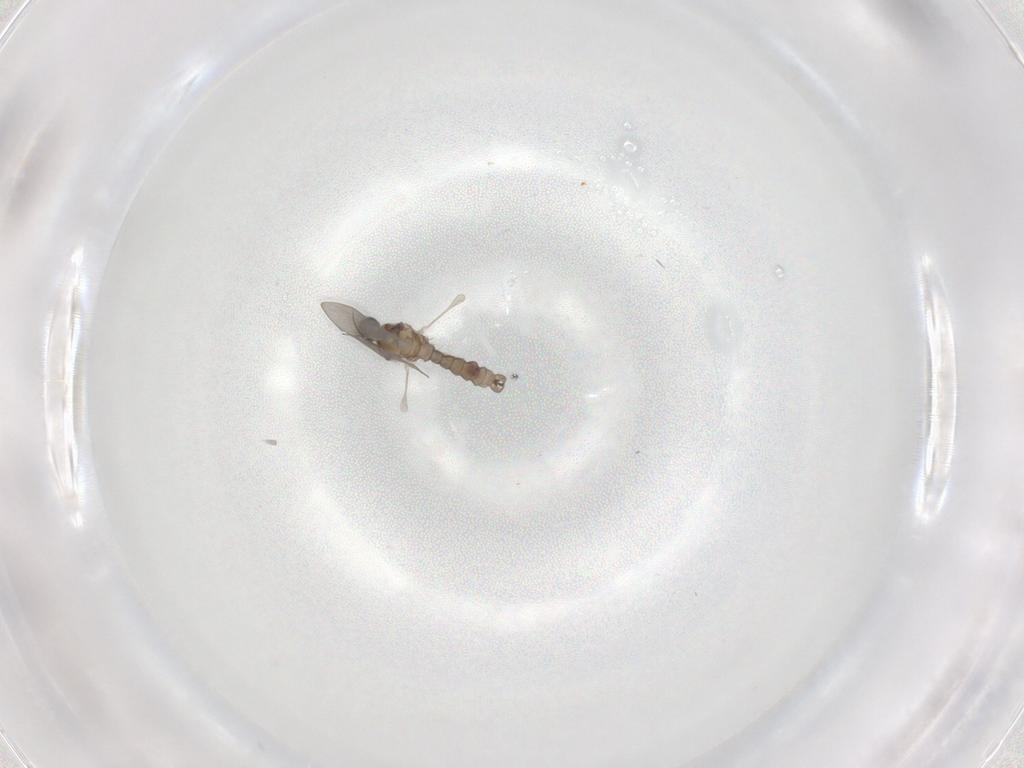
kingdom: Animalia
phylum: Arthropoda
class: Insecta
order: Diptera
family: Cecidomyiidae
